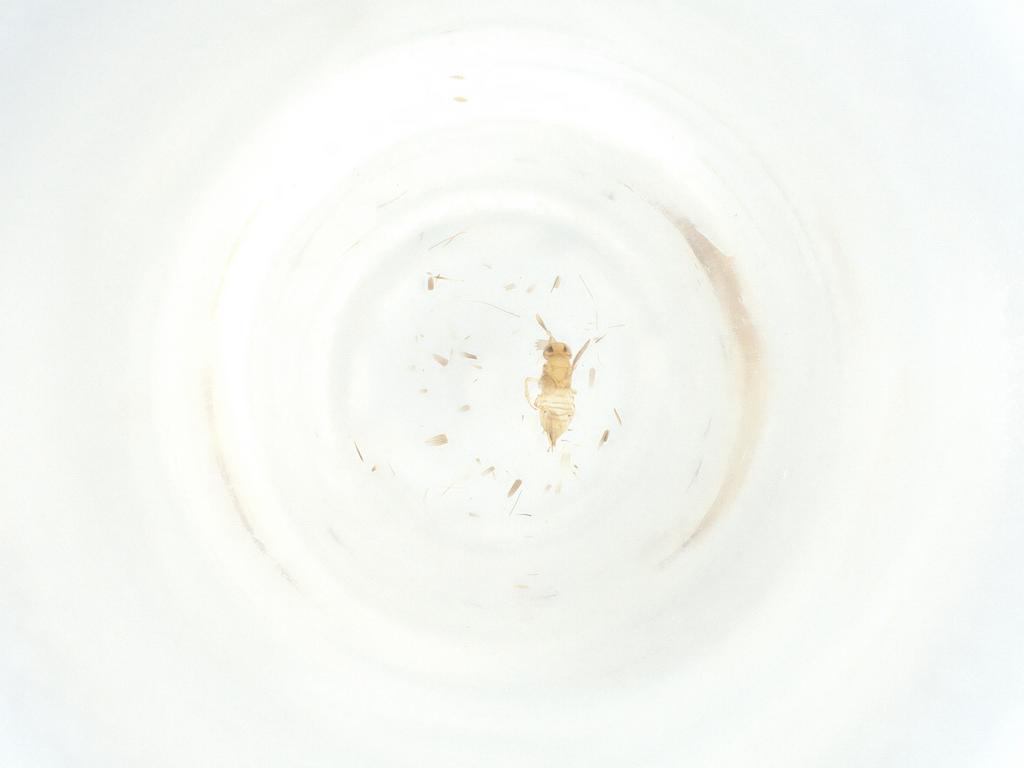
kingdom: Animalia
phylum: Arthropoda
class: Insecta
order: Hymenoptera
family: Encyrtidae
